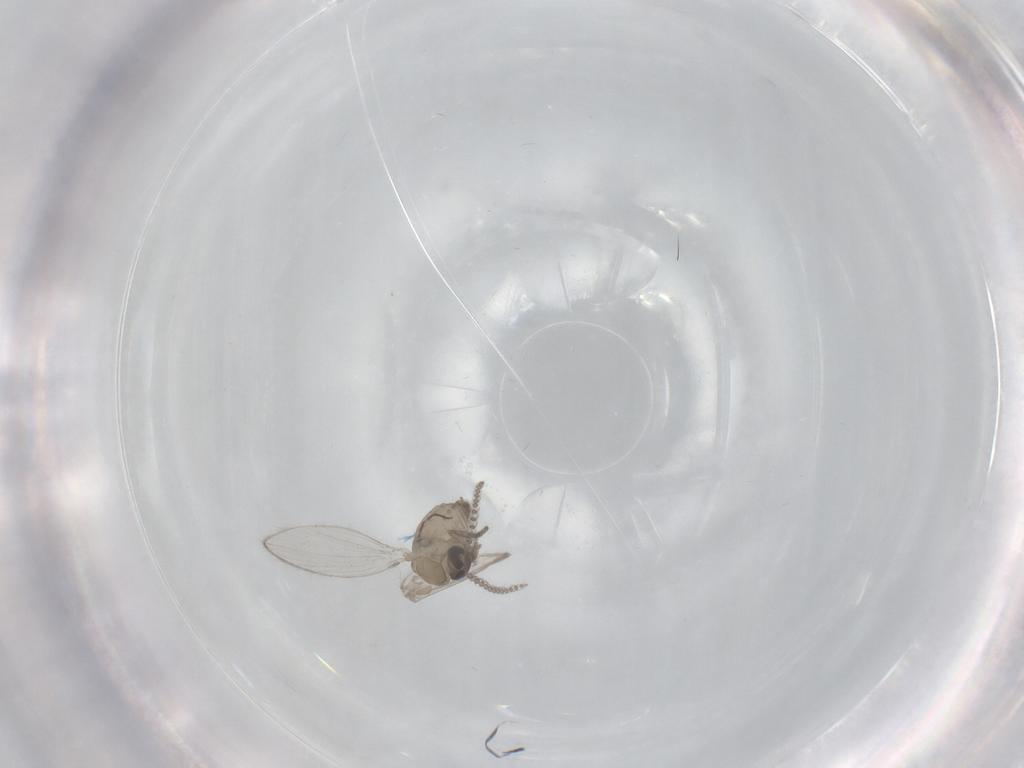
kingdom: Animalia
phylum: Arthropoda
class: Insecta
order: Diptera
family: Psychodidae
